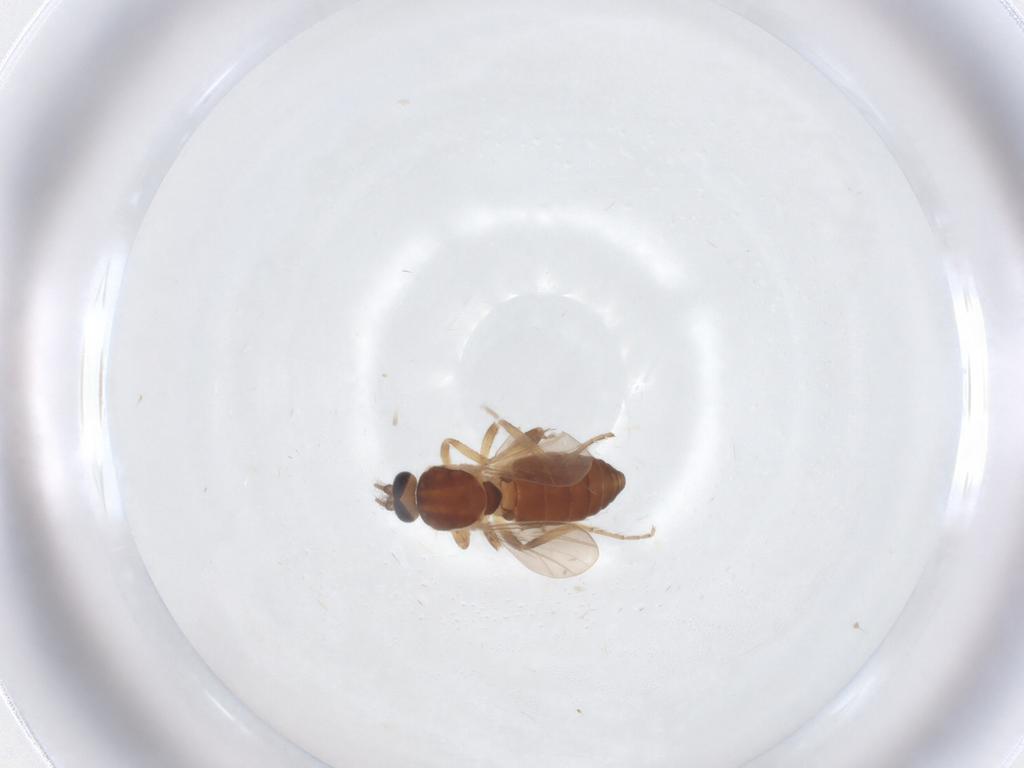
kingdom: Animalia
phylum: Arthropoda
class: Insecta
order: Diptera
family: Ceratopogonidae
